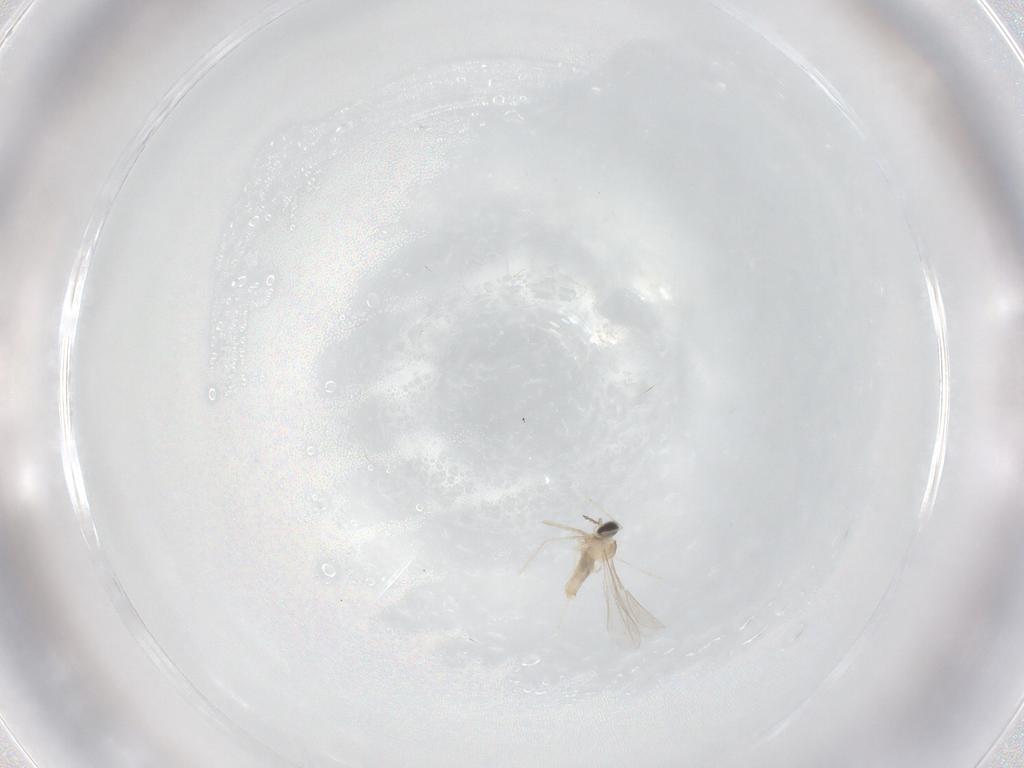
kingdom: Animalia
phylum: Arthropoda
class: Insecta
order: Diptera
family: Cecidomyiidae
